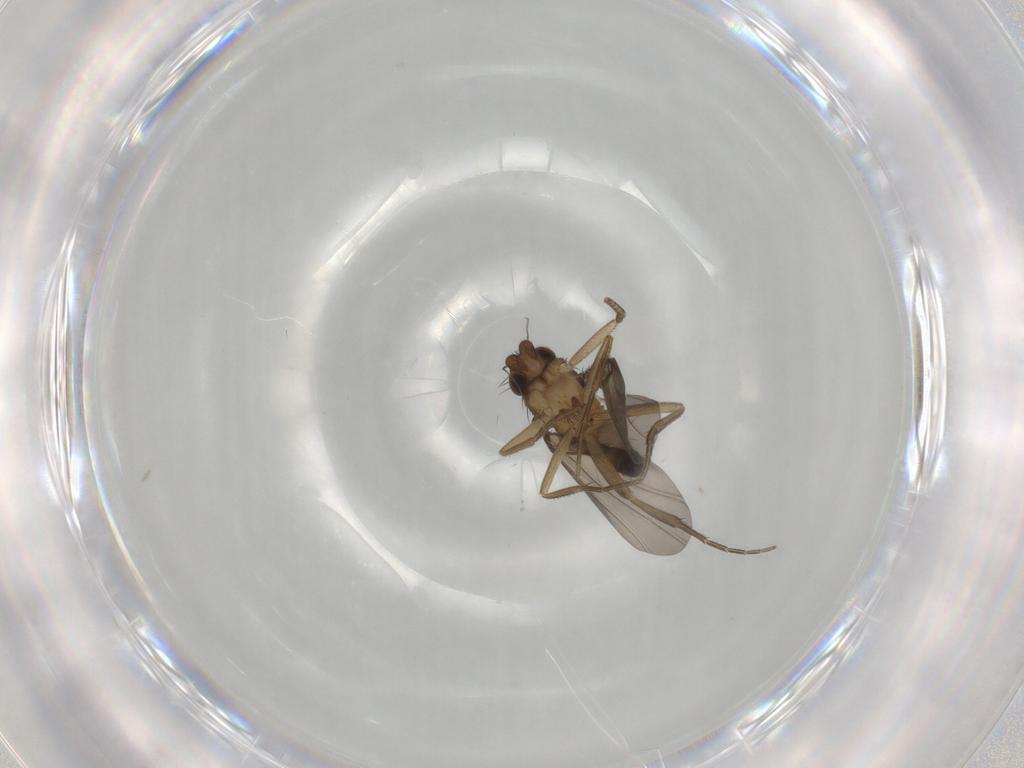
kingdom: Animalia
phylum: Arthropoda
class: Insecta
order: Diptera
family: Phoridae
